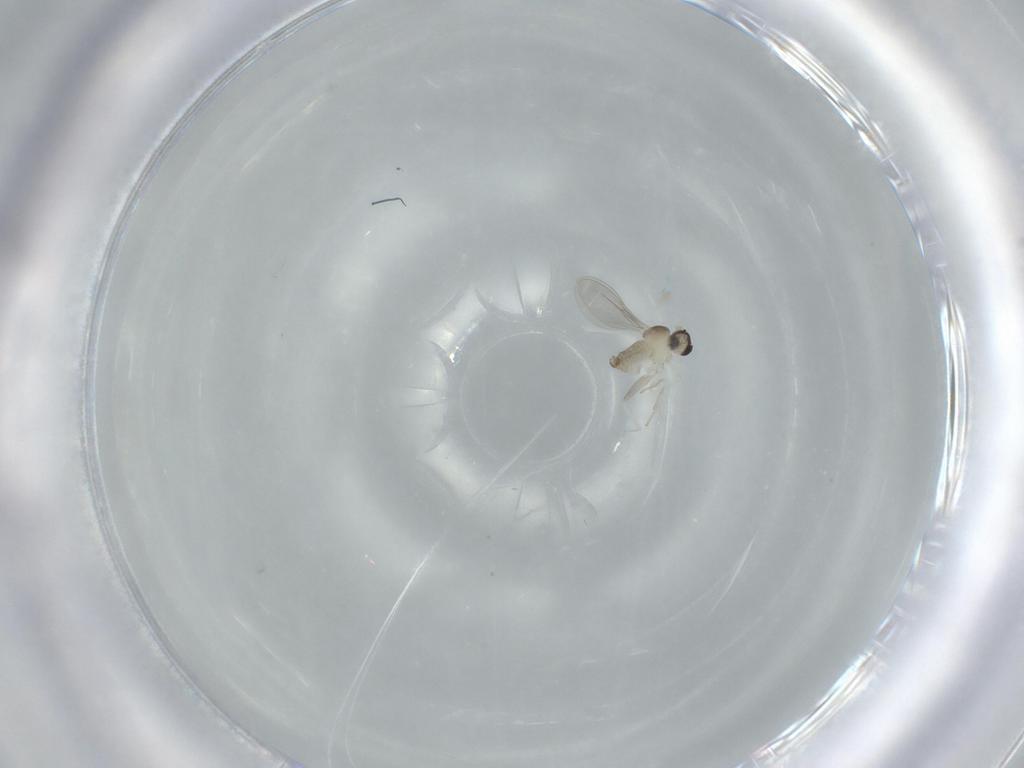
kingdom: Animalia
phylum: Arthropoda
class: Insecta
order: Diptera
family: Cecidomyiidae
